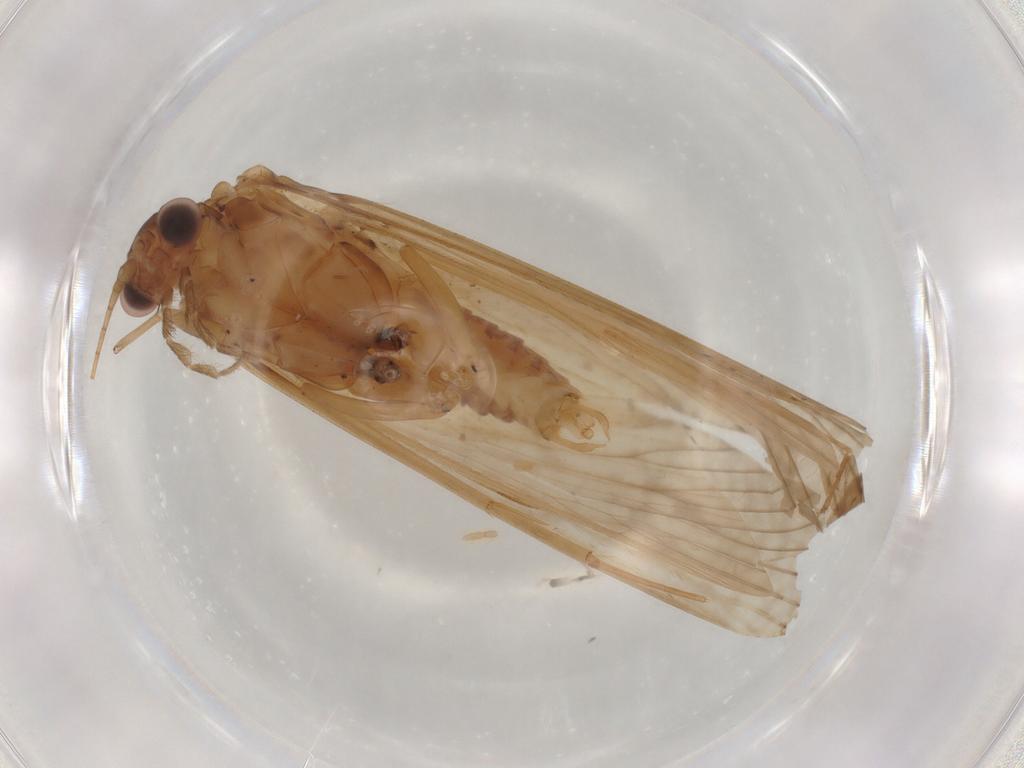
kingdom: Animalia
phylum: Arthropoda
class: Insecta
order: Trichoptera
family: Hydropsychidae
